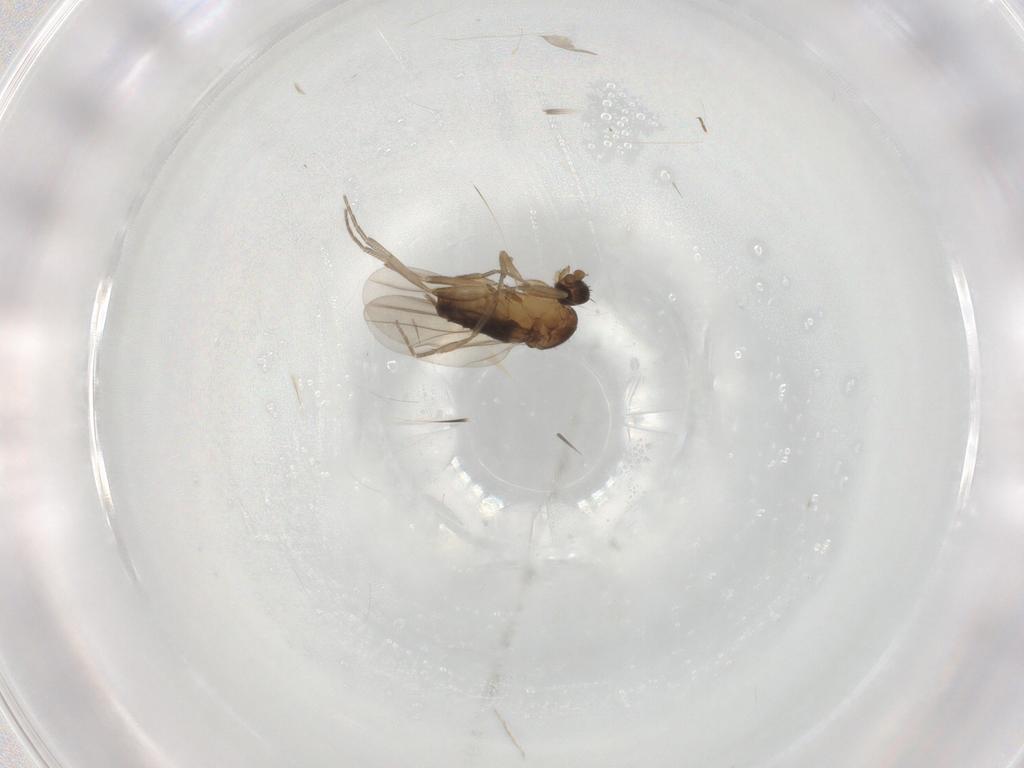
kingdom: Animalia
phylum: Arthropoda
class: Insecta
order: Diptera
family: Phoridae
